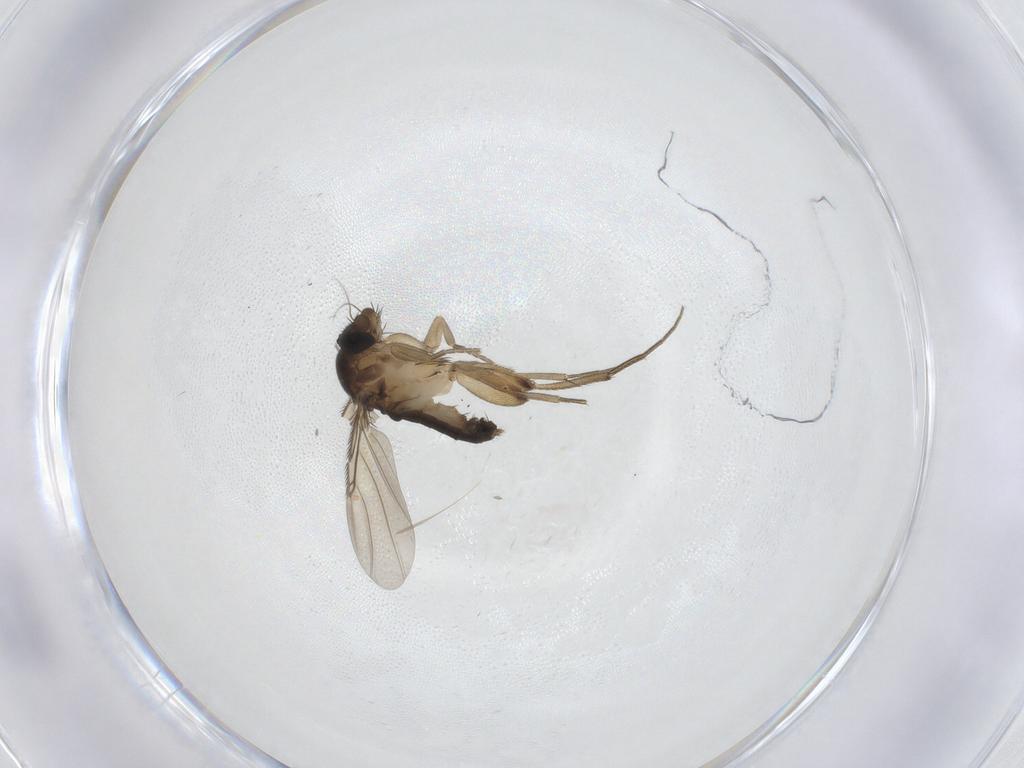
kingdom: Animalia
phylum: Arthropoda
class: Insecta
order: Diptera
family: Phoridae
